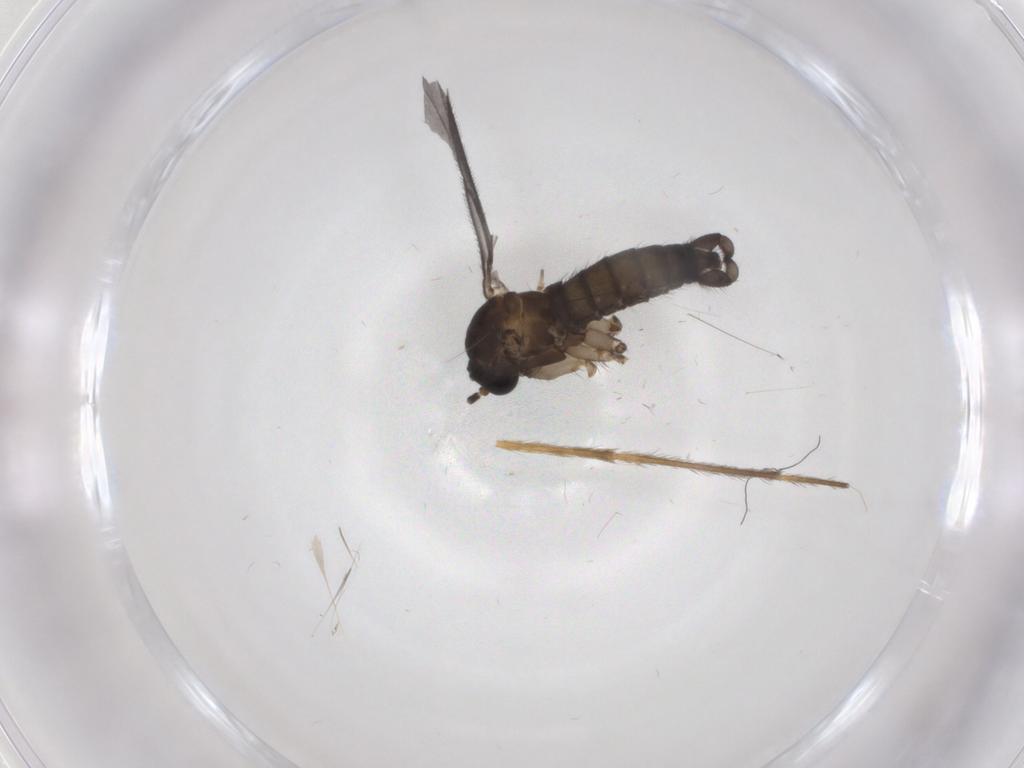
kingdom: Animalia
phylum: Arthropoda
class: Insecta
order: Diptera
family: Sciaridae
